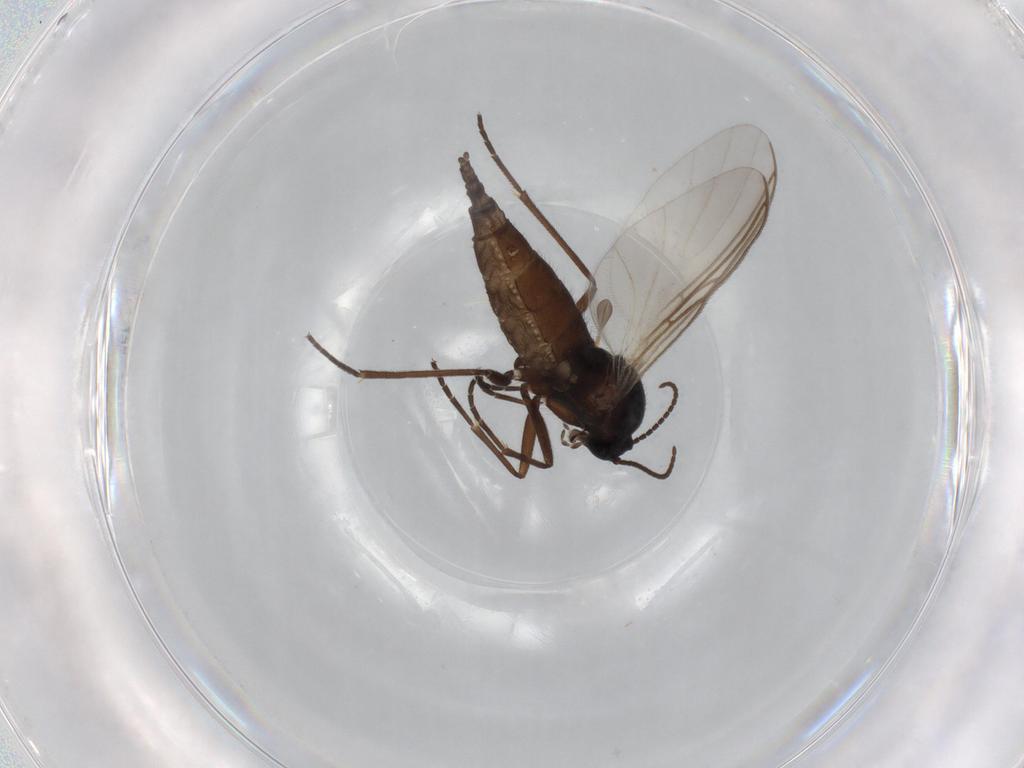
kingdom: Animalia
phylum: Arthropoda
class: Insecta
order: Diptera
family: Sciaridae
